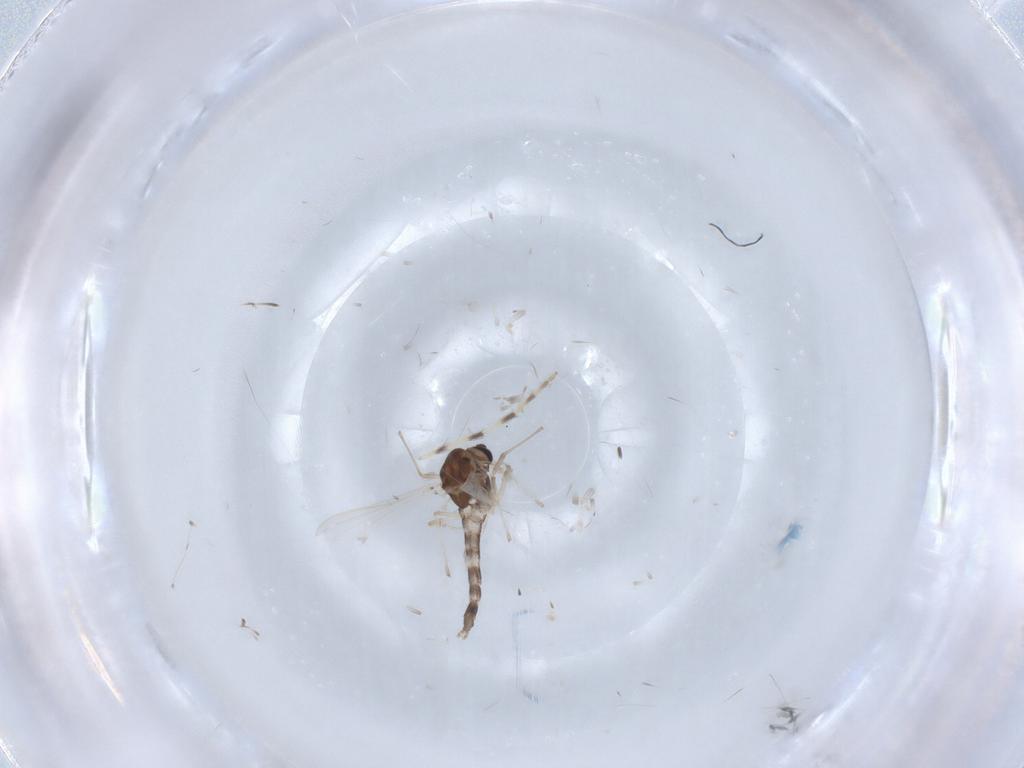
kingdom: Animalia
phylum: Arthropoda
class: Insecta
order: Diptera
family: Chironomidae
